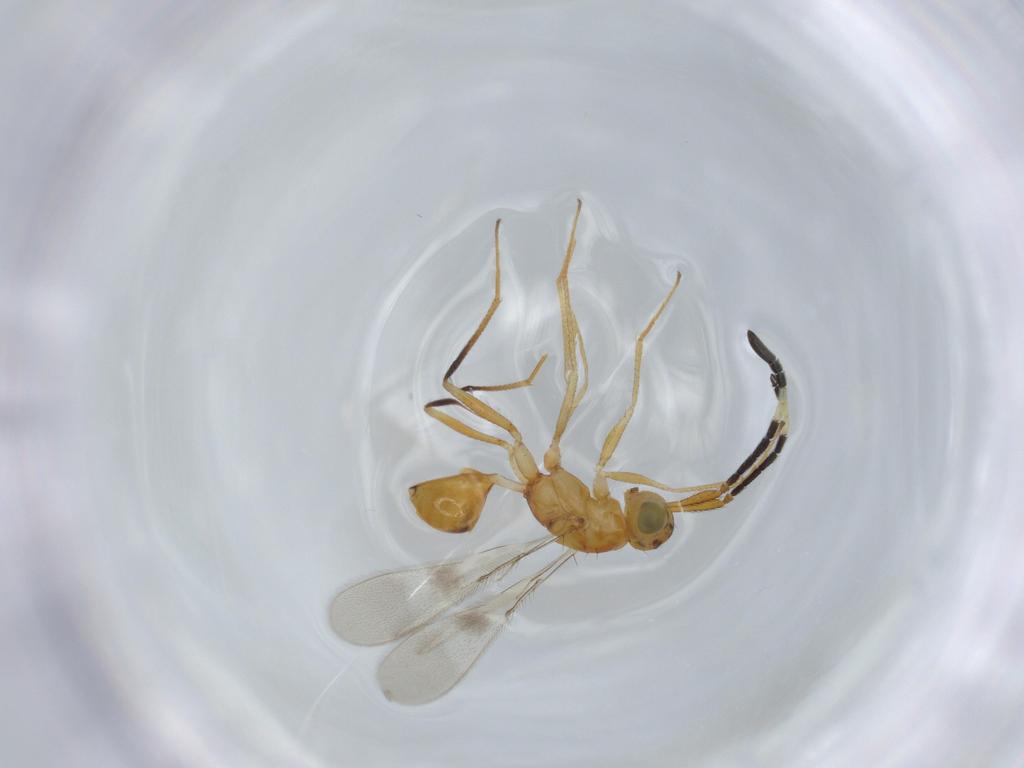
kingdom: Animalia
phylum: Arthropoda
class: Insecta
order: Hymenoptera
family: Mymaridae
